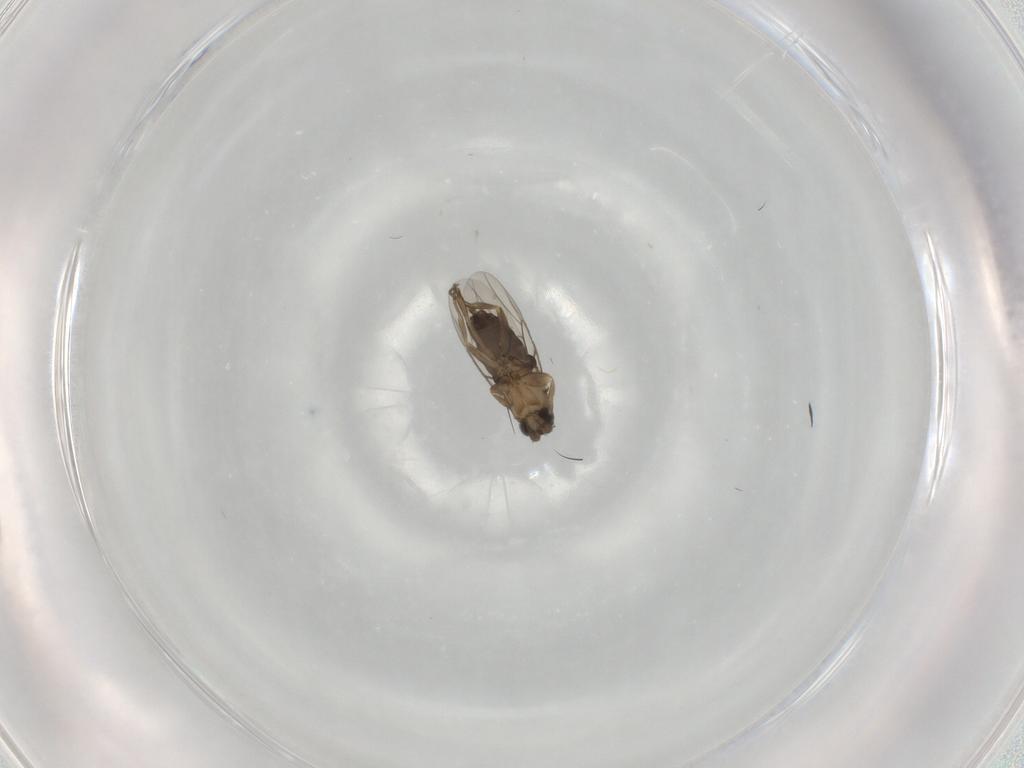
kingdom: Animalia
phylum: Arthropoda
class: Insecta
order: Diptera
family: Phoridae
